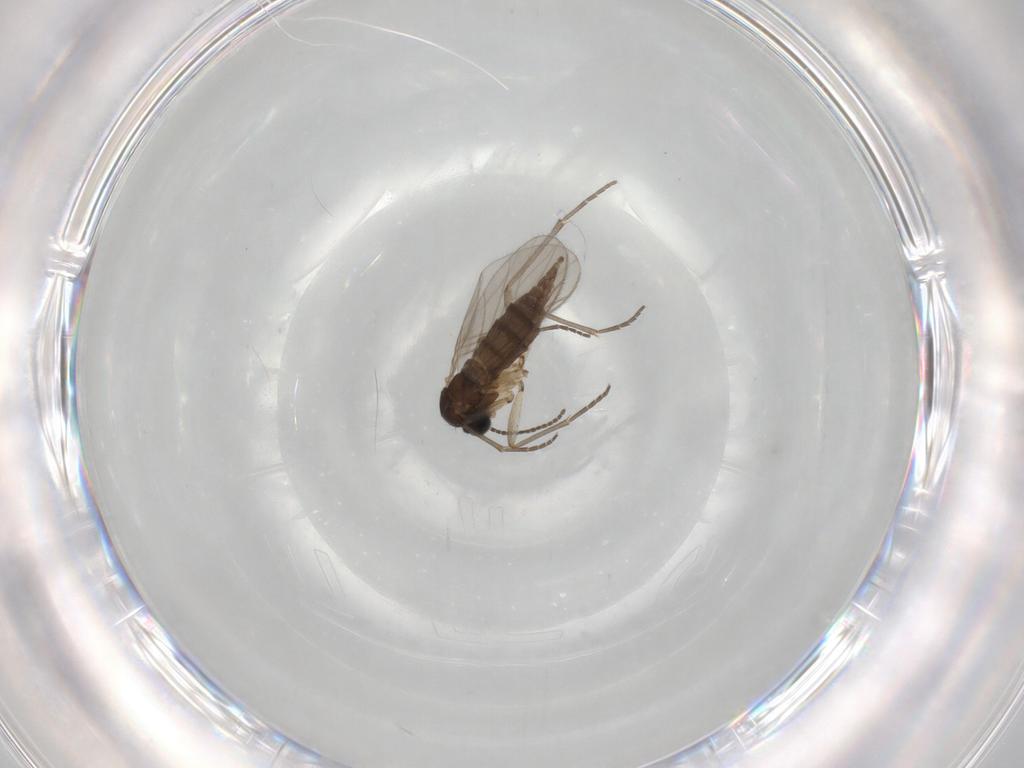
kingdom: Animalia
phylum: Arthropoda
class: Insecta
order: Diptera
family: Sciaridae
